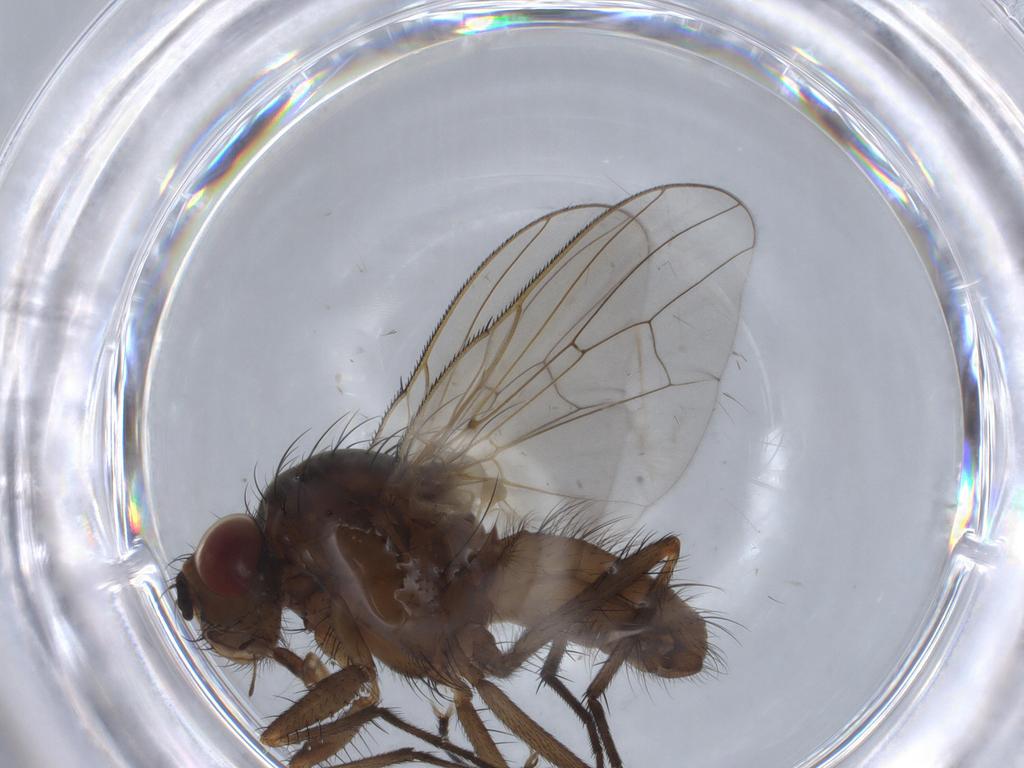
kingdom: Animalia
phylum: Arthropoda
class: Insecta
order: Diptera
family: Anthomyiidae
